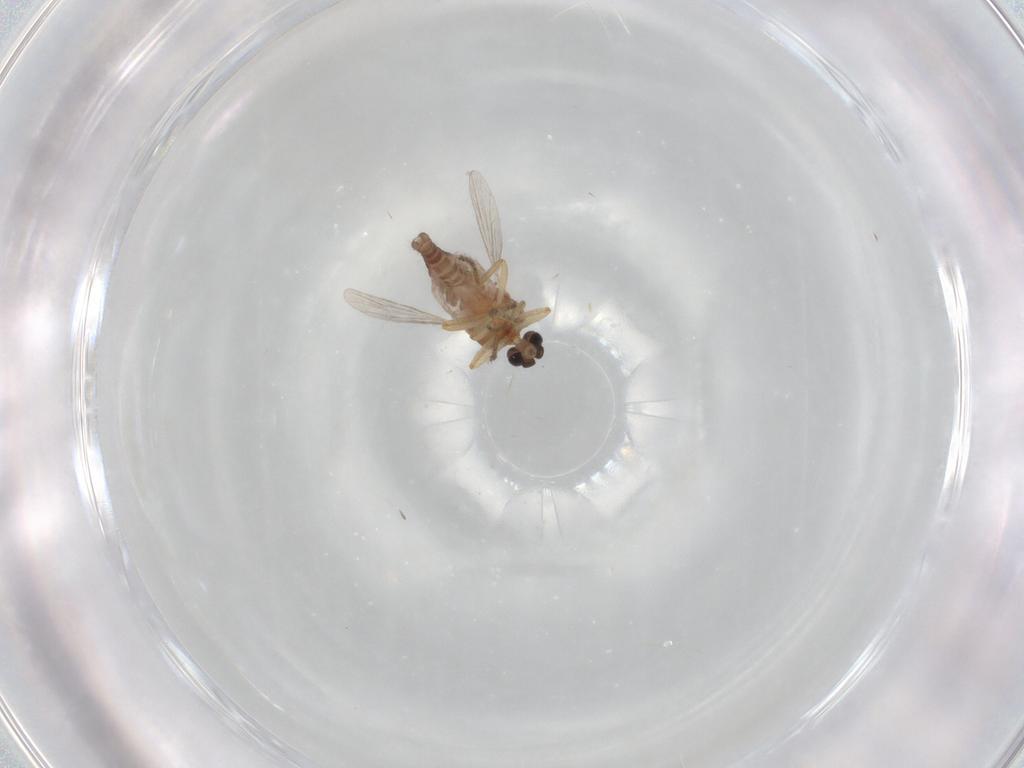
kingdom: Animalia
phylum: Arthropoda
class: Insecta
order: Diptera
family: Ceratopogonidae
